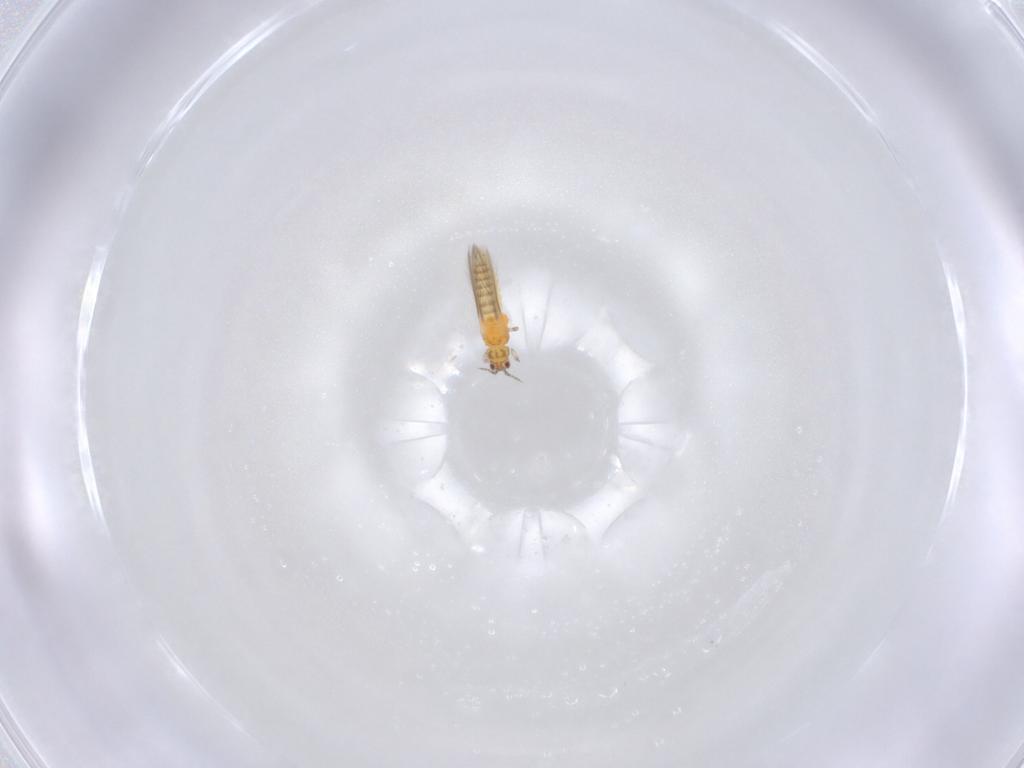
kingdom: Animalia
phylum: Arthropoda
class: Insecta
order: Thysanoptera
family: Thripidae
